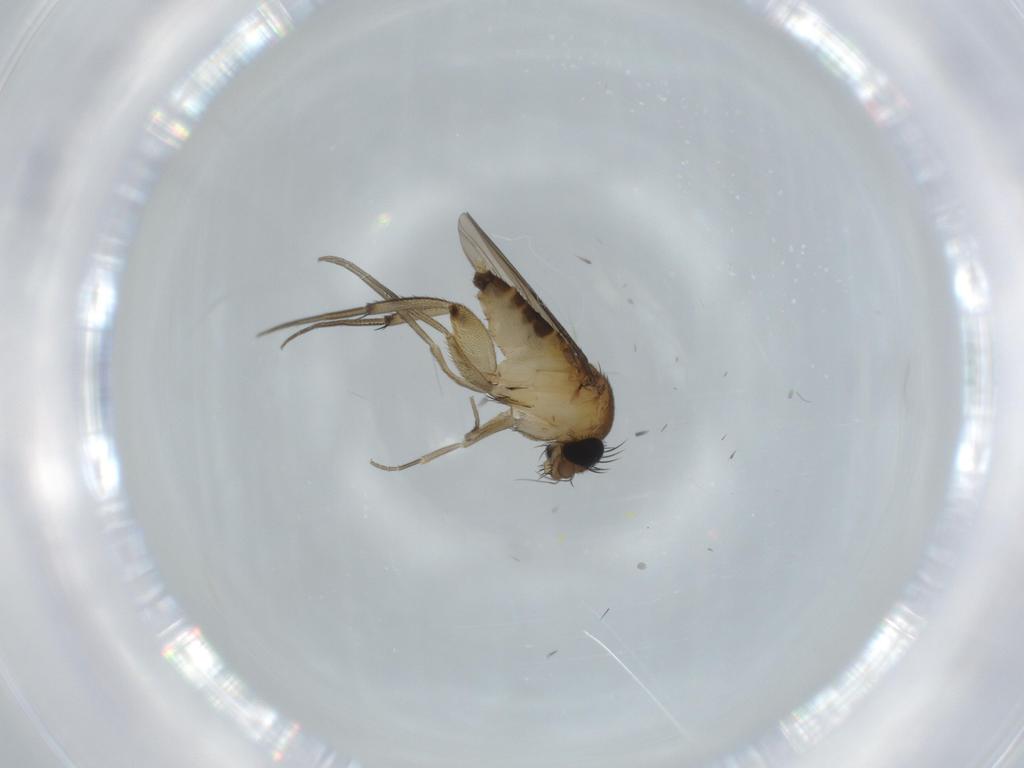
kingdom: Animalia
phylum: Arthropoda
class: Insecta
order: Diptera
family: Phoridae
